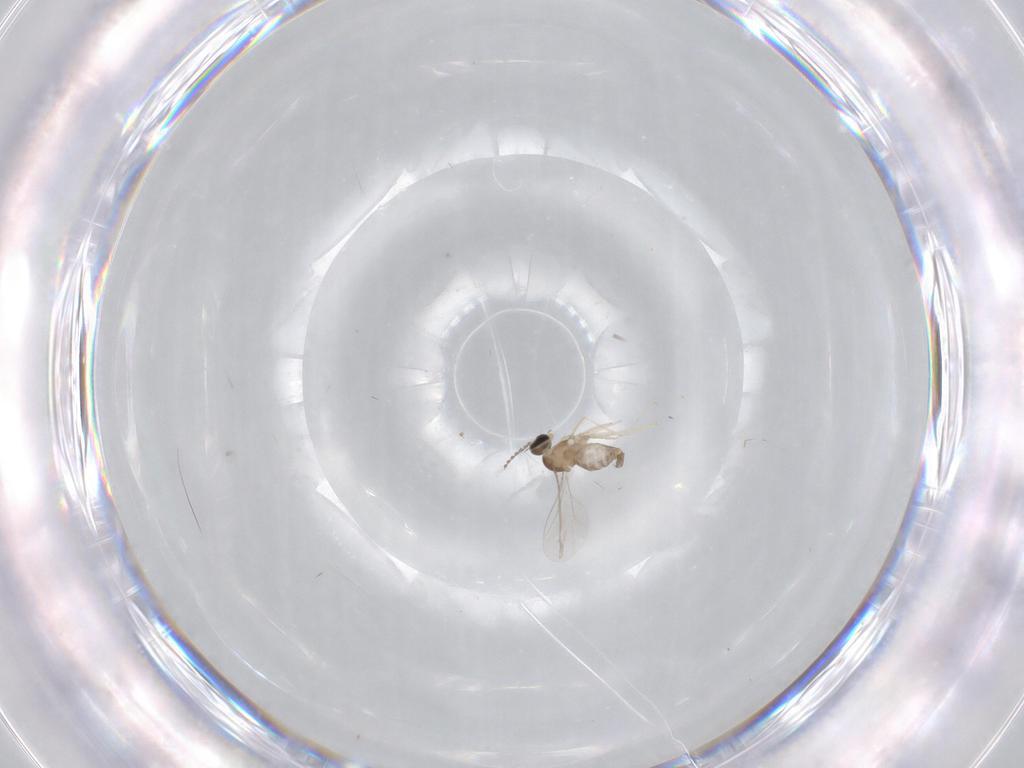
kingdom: Animalia
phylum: Arthropoda
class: Insecta
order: Diptera
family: Cecidomyiidae
